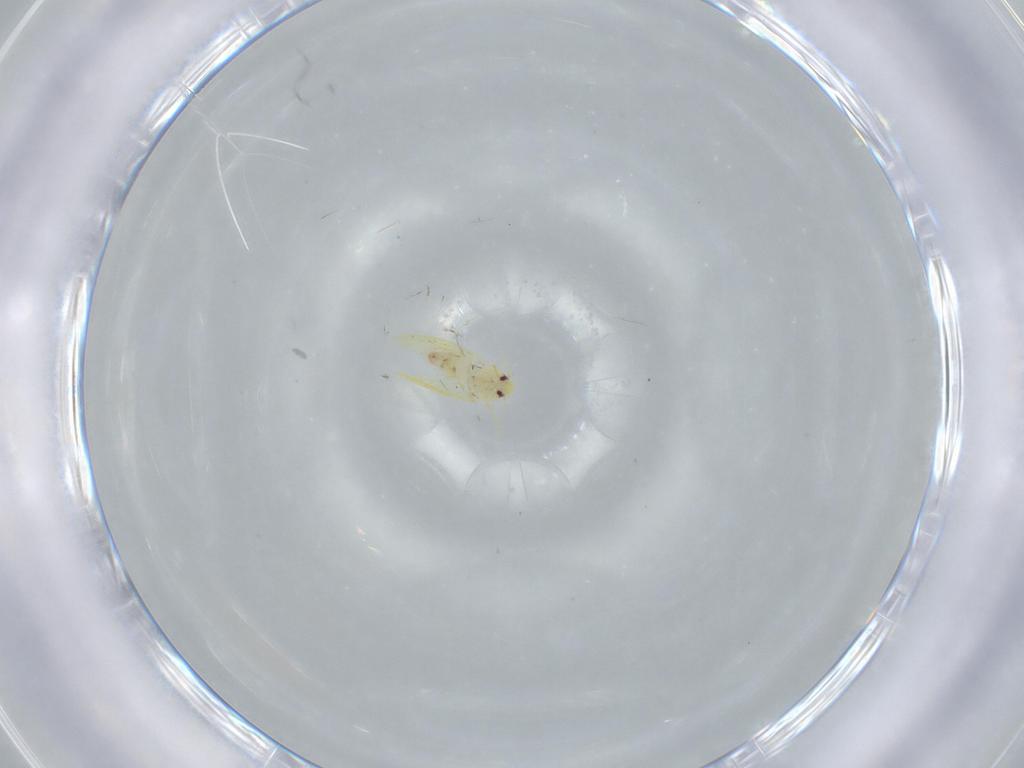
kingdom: Animalia
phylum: Arthropoda
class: Insecta
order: Hemiptera
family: Aleyrodidae
